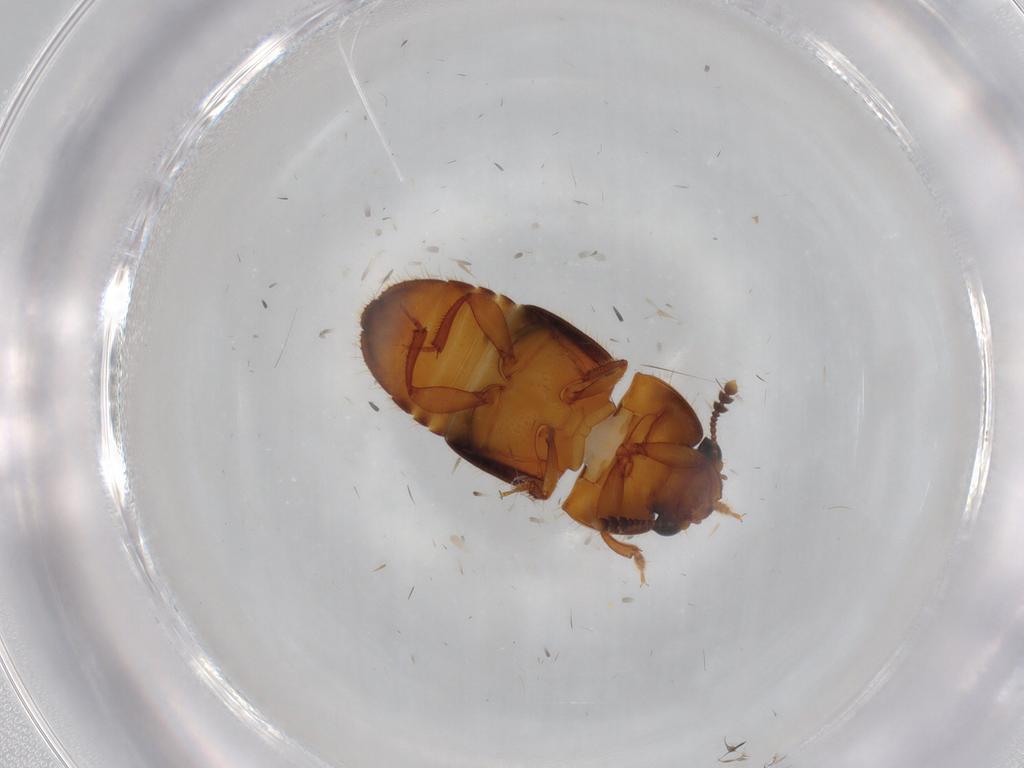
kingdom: Animalia
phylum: Arthropoda
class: Insecta
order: Coleoptera
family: Nitidulidae
